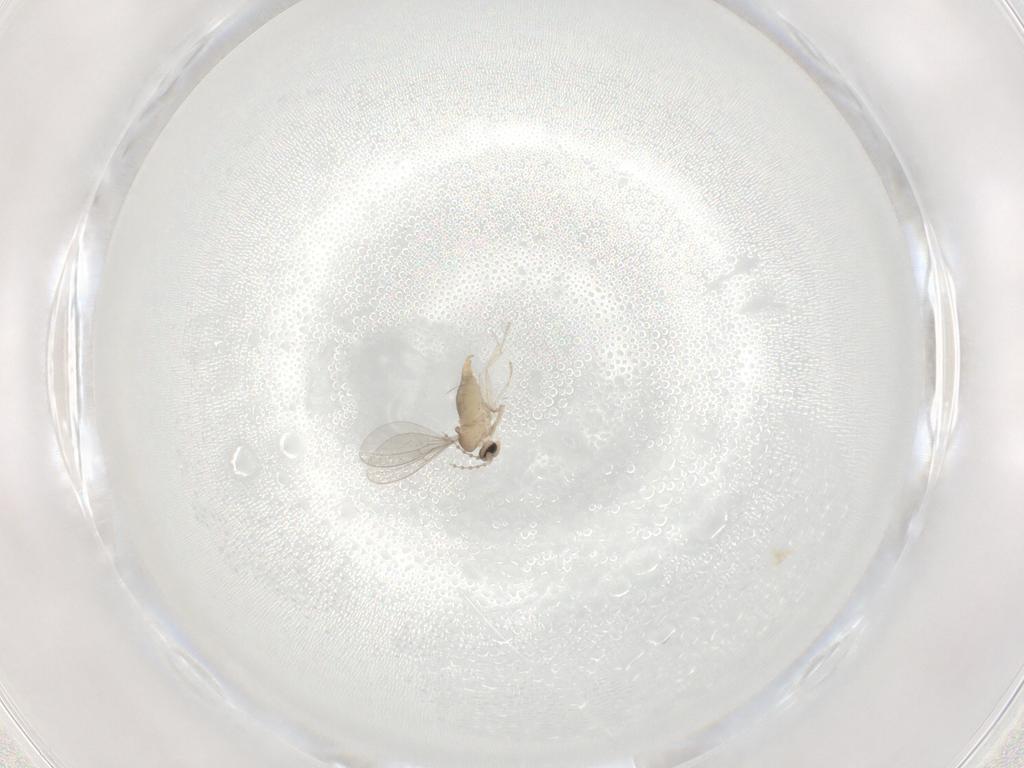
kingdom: Animalia
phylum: Arthropoda
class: Insecta
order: Diptera
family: Cecidomyiidae
